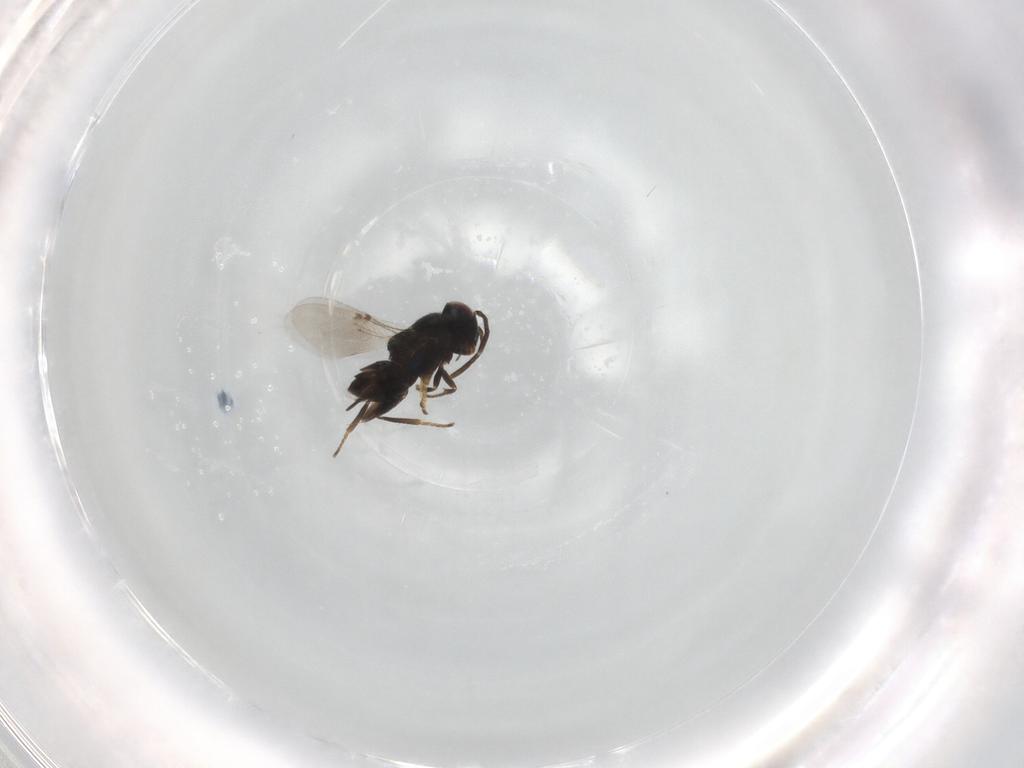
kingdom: Animalia
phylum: Arthropoda
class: Insecta
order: Hymenoptera
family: Encyrtidae
